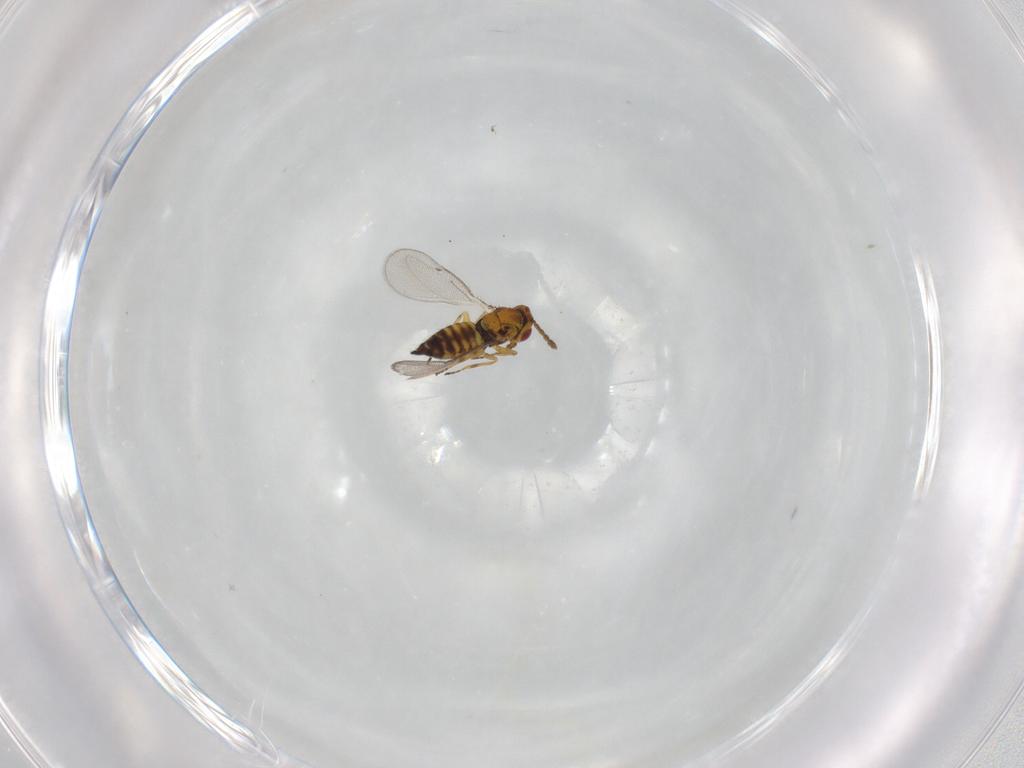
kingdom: Animalia
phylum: Arthropoda
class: Insecta
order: Hymenoptera
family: Eulophidae
